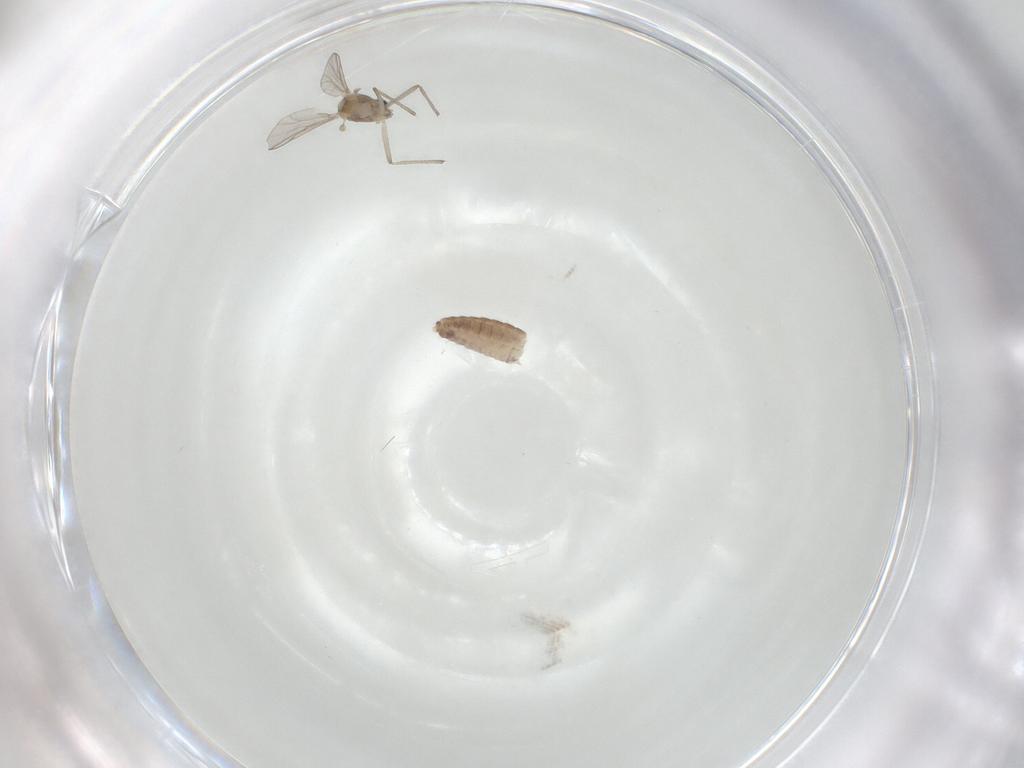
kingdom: Animalia
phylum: Arthropoda
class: Insecta
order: Diptera
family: Chironomidae
